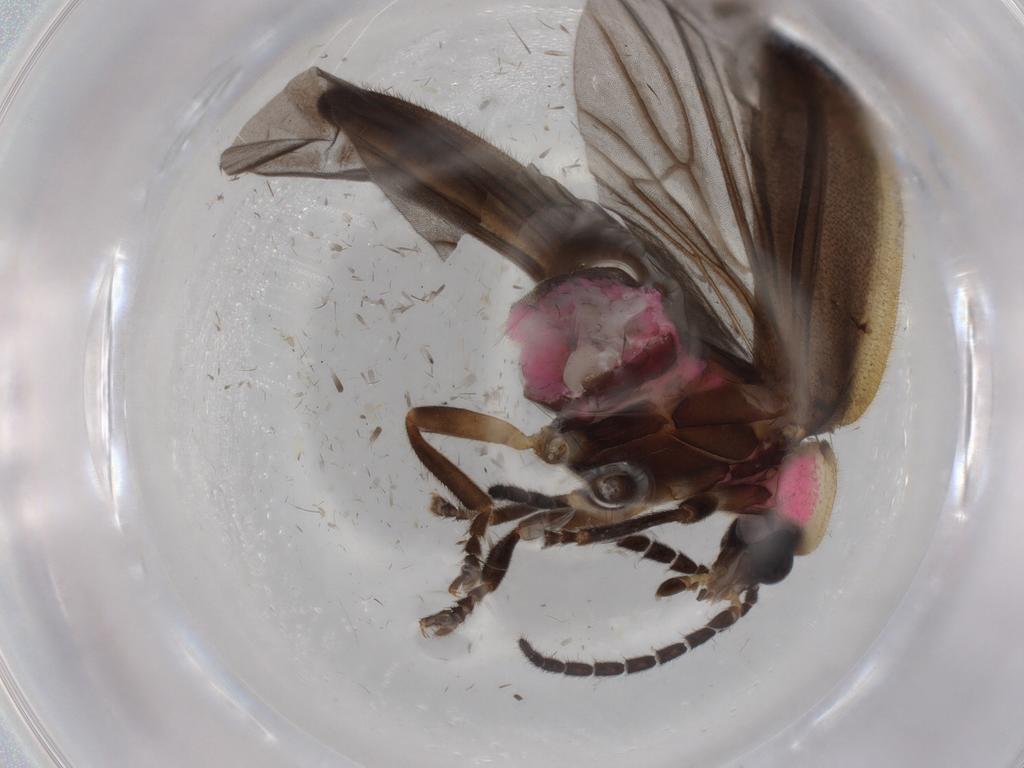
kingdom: Animalia
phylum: Arthropoda
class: Insecta
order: Coleoptera
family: Lampyridae
